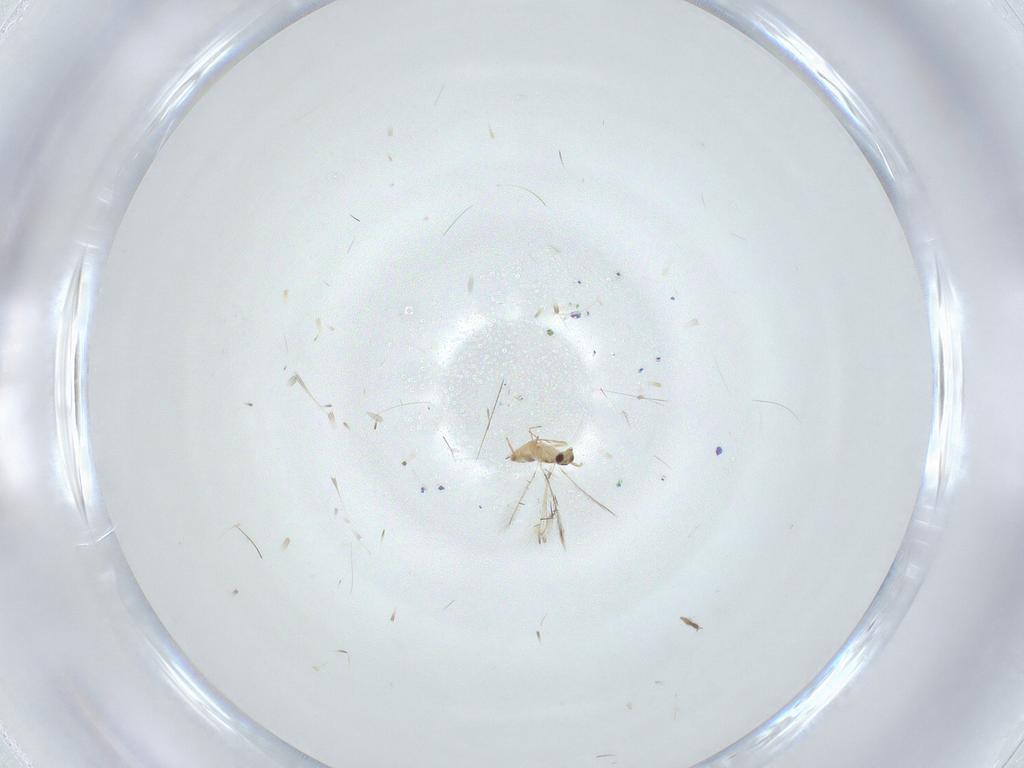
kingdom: Animalia
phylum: Arthropoda
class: Insecta
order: Hymenoptera
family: Mymaridae
